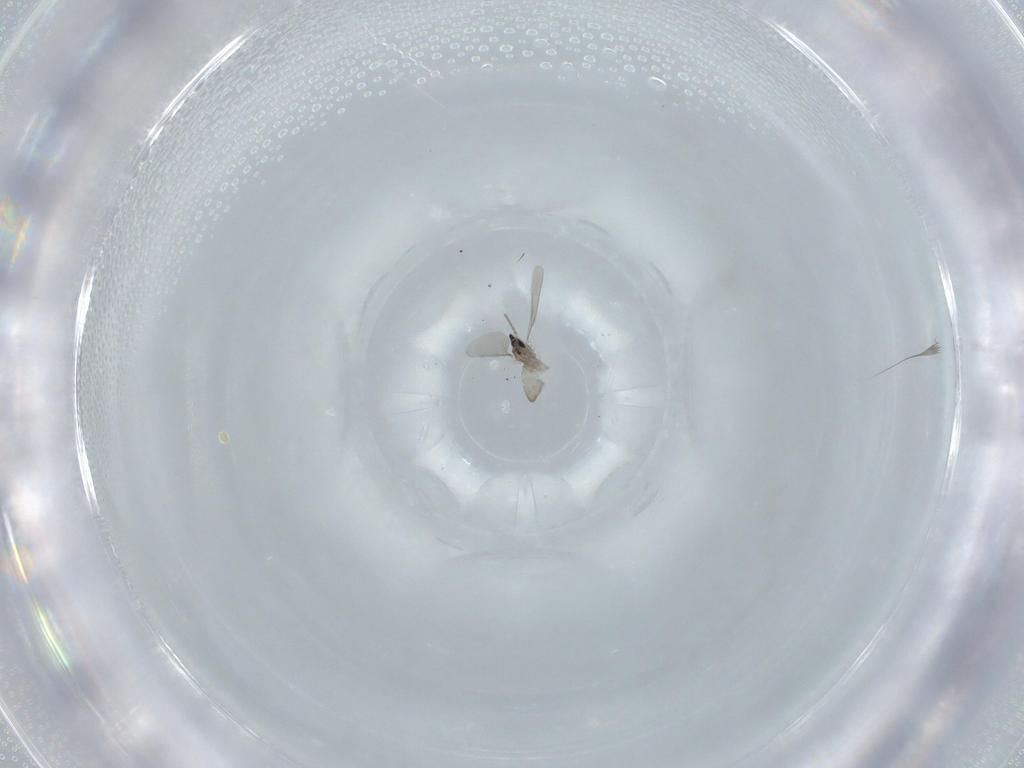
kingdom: Animalia
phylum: Arthropoda
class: Insecta
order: Diptera
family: Cecidomyiidae
